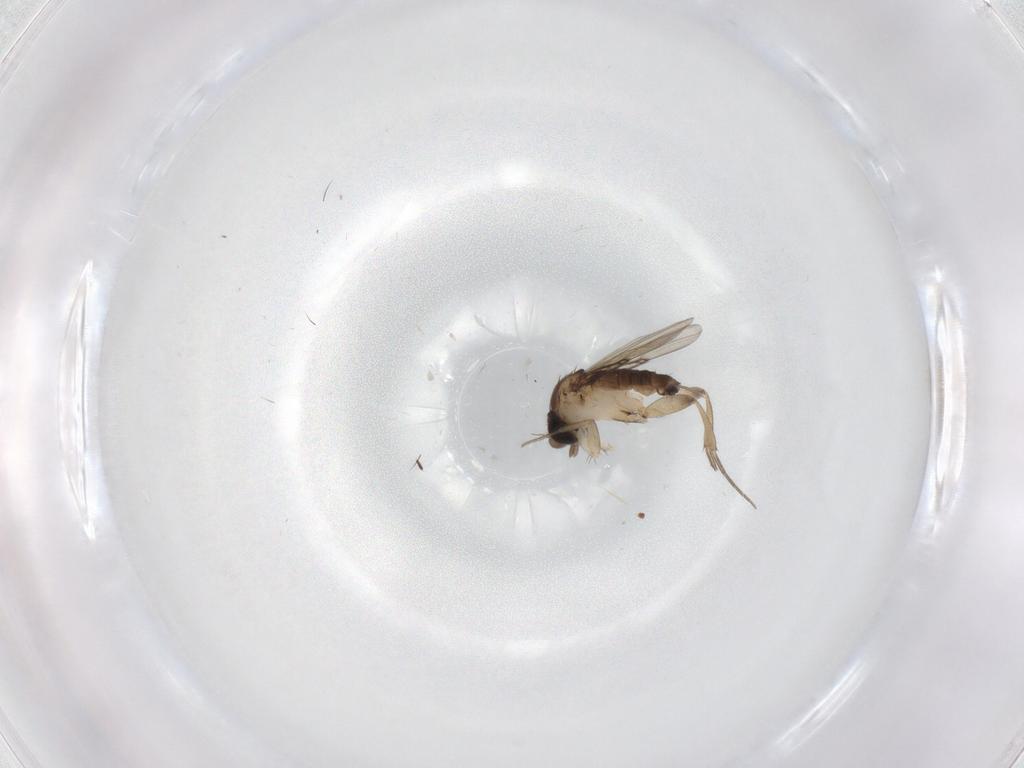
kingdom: Animalia
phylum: Arthropoda
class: Insecta
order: Diptera
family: Phoridae
